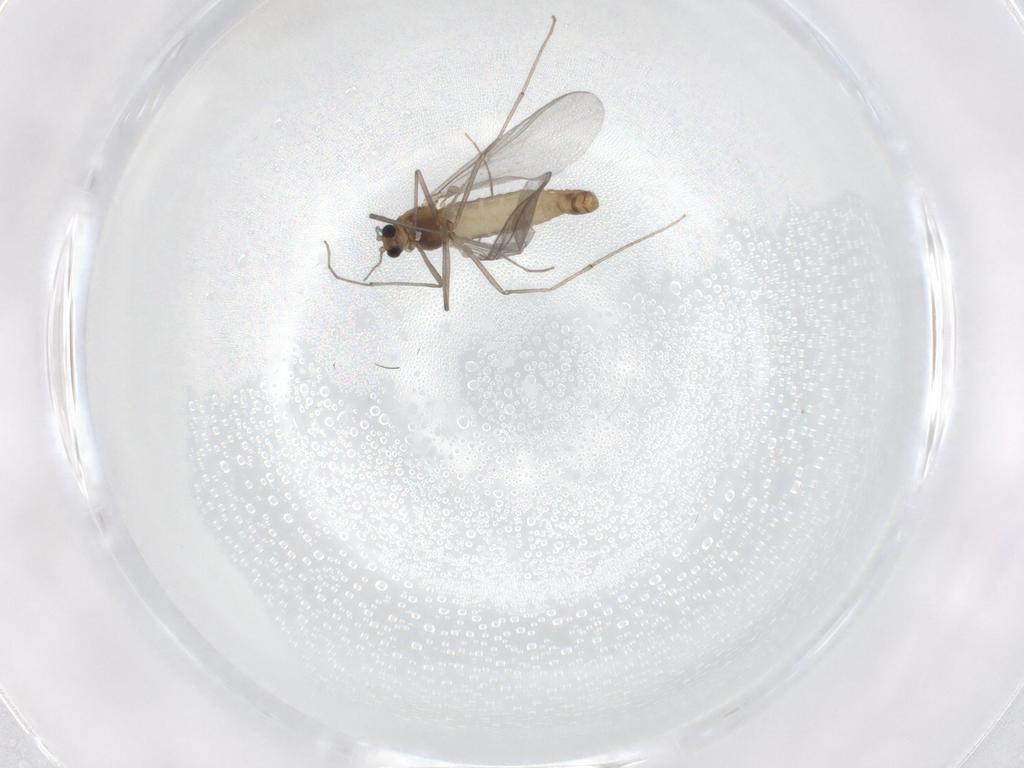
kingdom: Animalia
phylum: Arthropoda
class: Insecta
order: Diptera
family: Chironomidae
